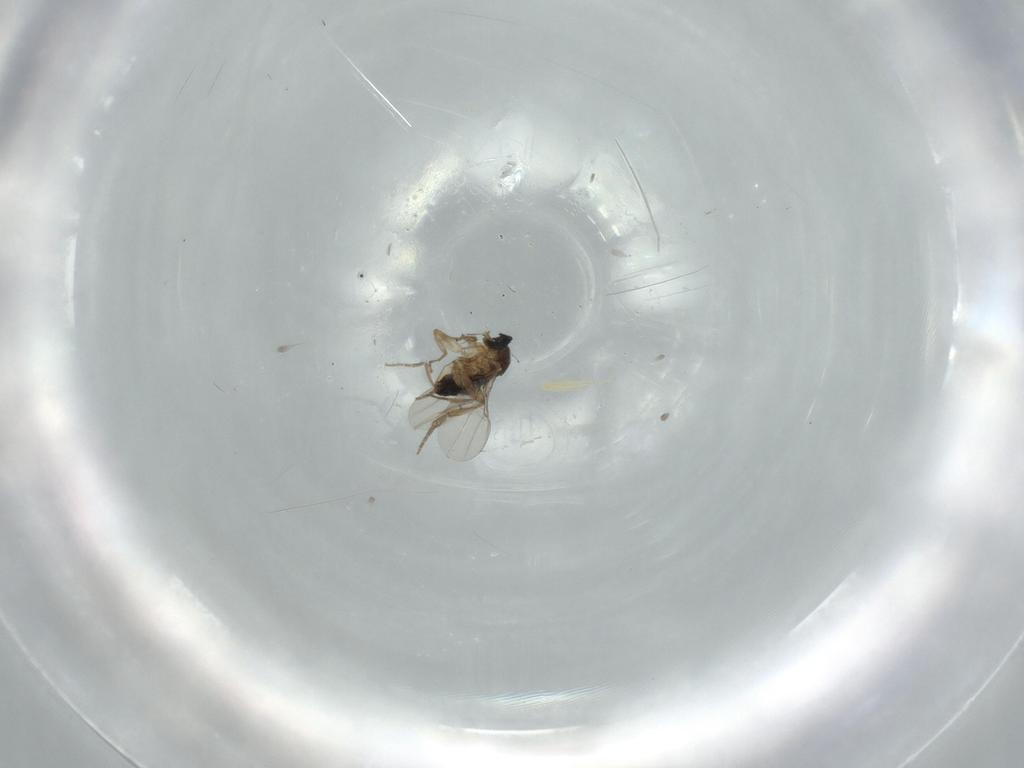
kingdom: Animalia
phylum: Arthropoda
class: Insecta
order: Diptera
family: Phoridae
